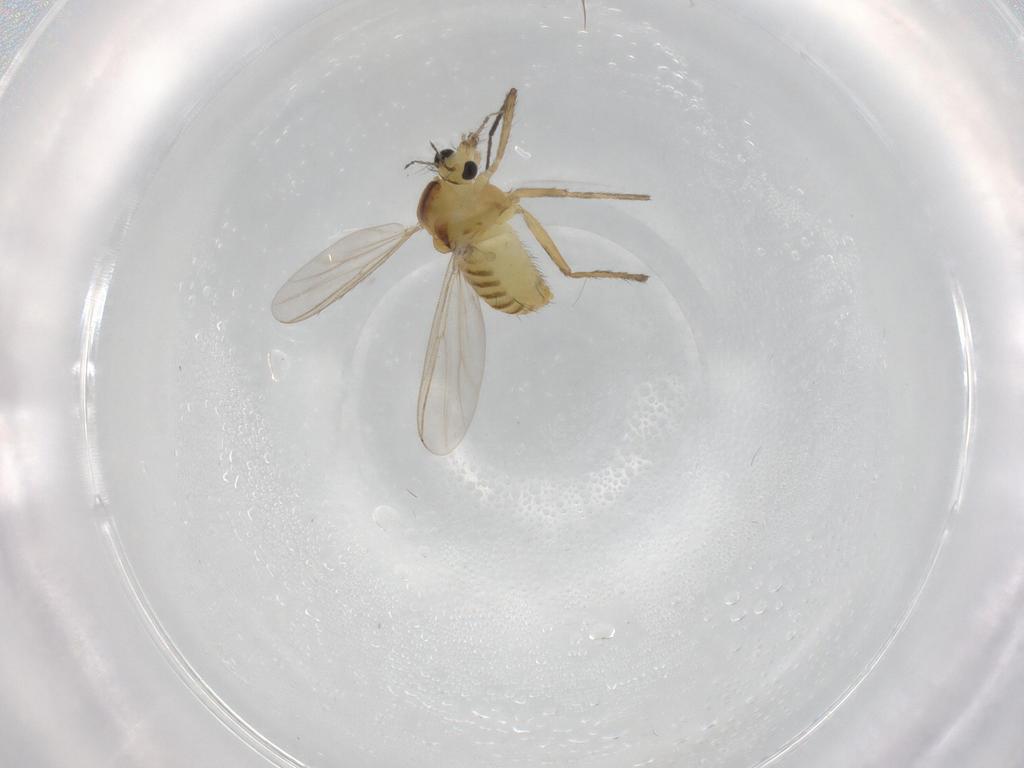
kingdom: Animalia
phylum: Arthropoda
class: Insecta
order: Diptera
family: Chironomidae
